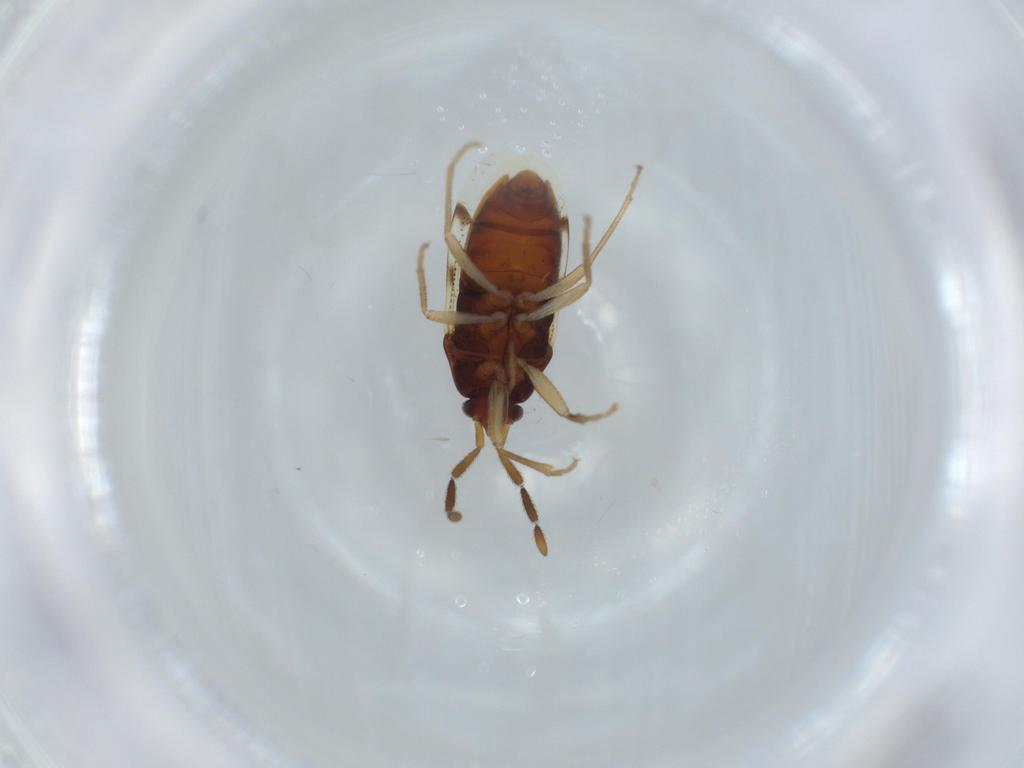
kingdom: Animalia
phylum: Arthropoda
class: Insecta
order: Hemiptera
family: Rhyparochromidae
